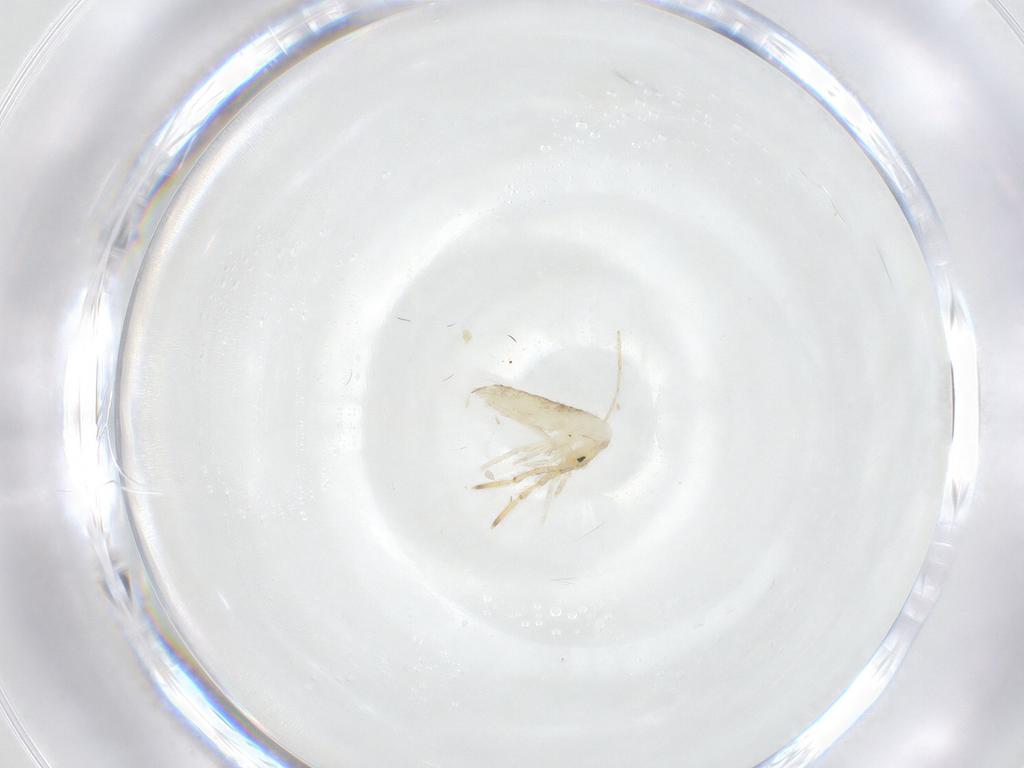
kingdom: Animalia
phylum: Arthropoda
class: Collembola
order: Entomobryomorpha
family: Entomobryidae
